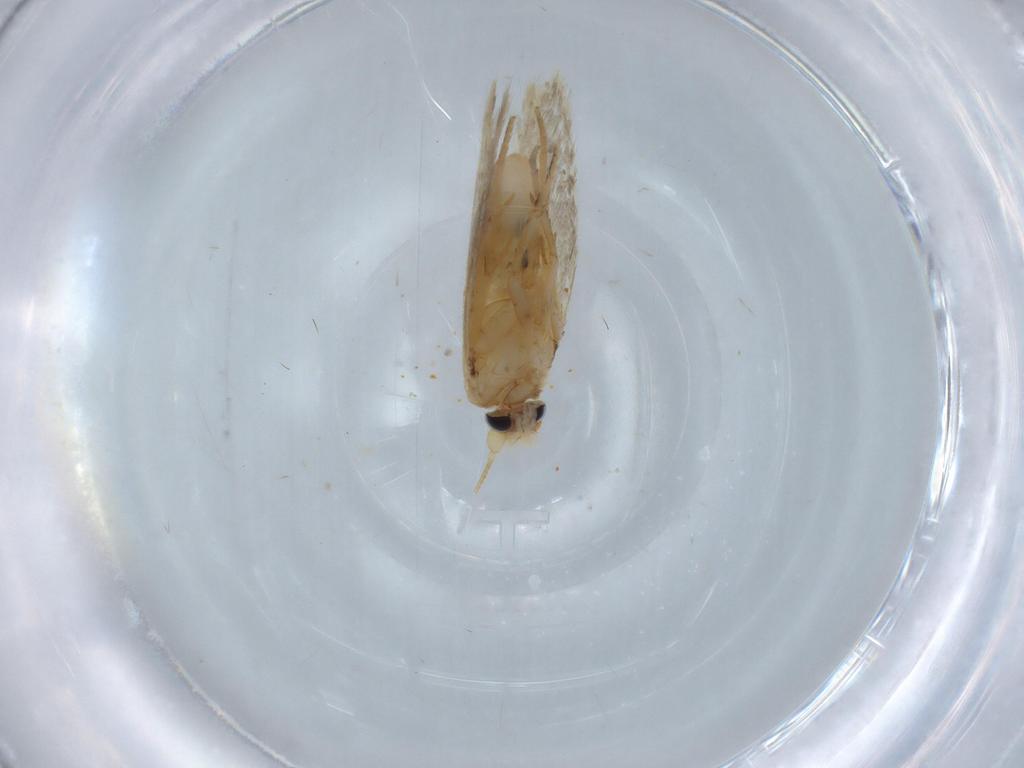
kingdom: Animalia
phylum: Arthropoda
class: Insecta
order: Lepidoptera
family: Nepticulidae
